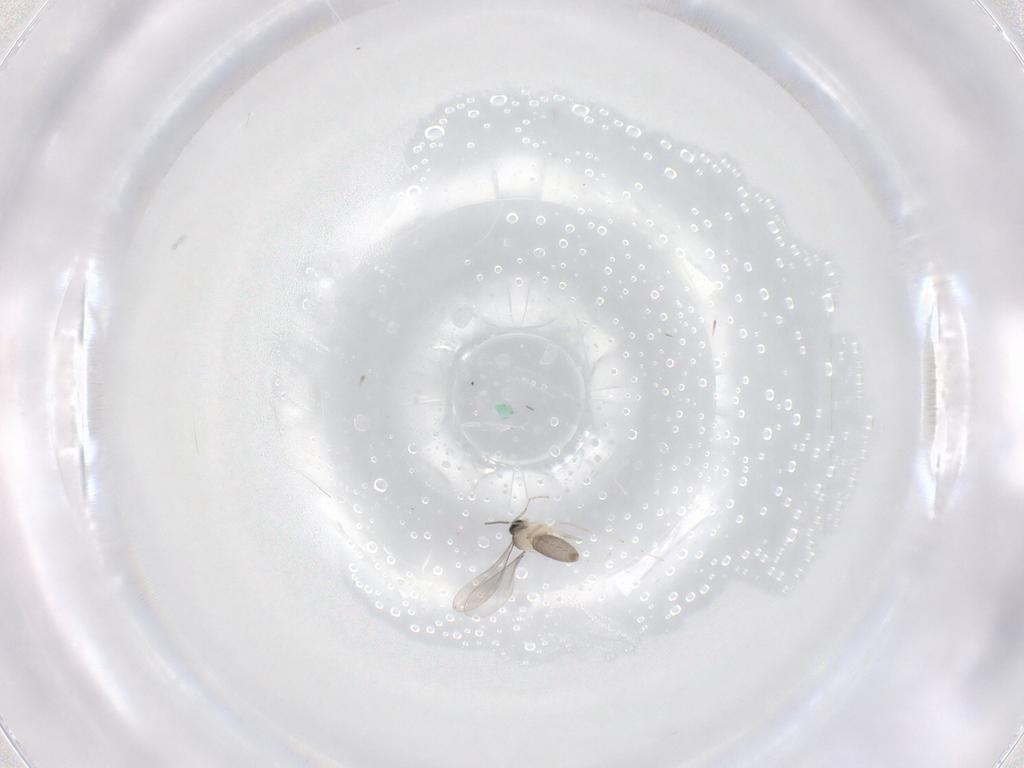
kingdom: Animalia
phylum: Arthropoda
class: Insecta
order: Diptera
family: Cecidomyiidae
